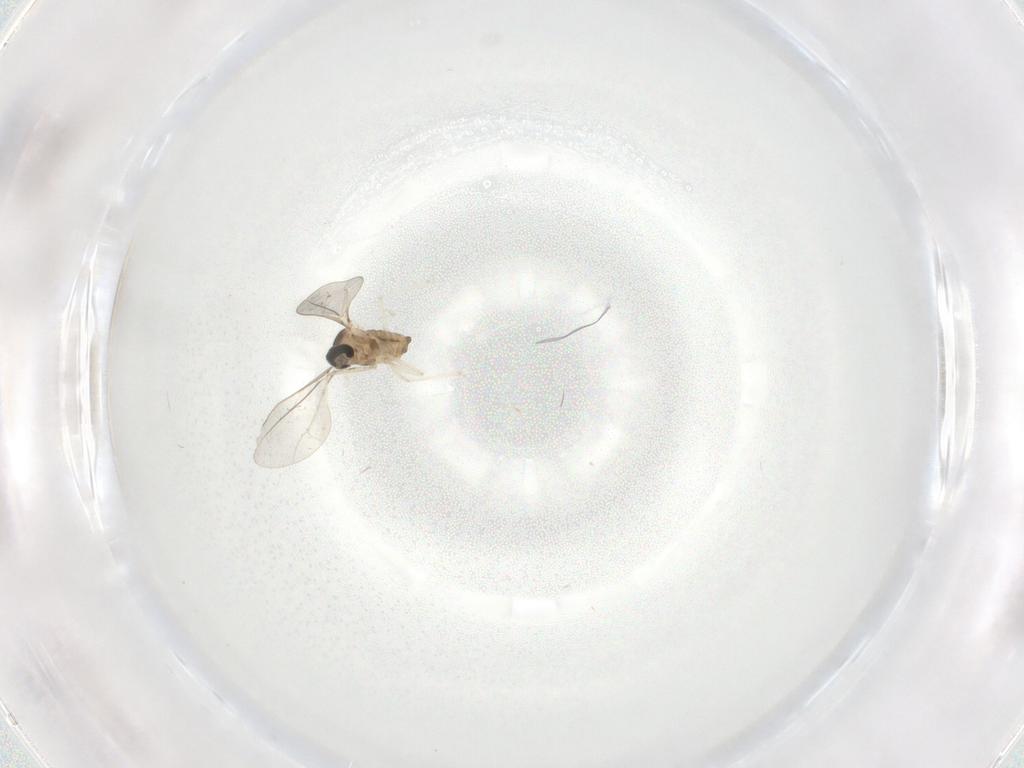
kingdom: Animalia
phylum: Arthropoda
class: Insecta
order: Diptera
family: Cecidomyiidae
